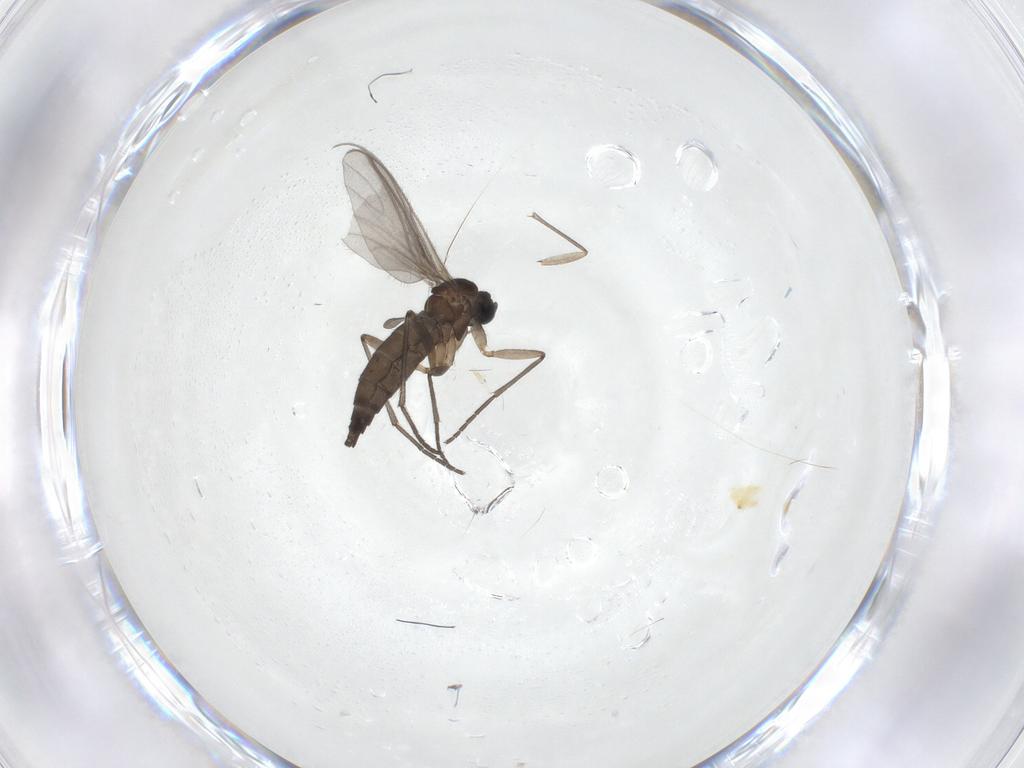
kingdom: Animalia
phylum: Arthropoda
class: Insecta
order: Diptera
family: Sciaridae
